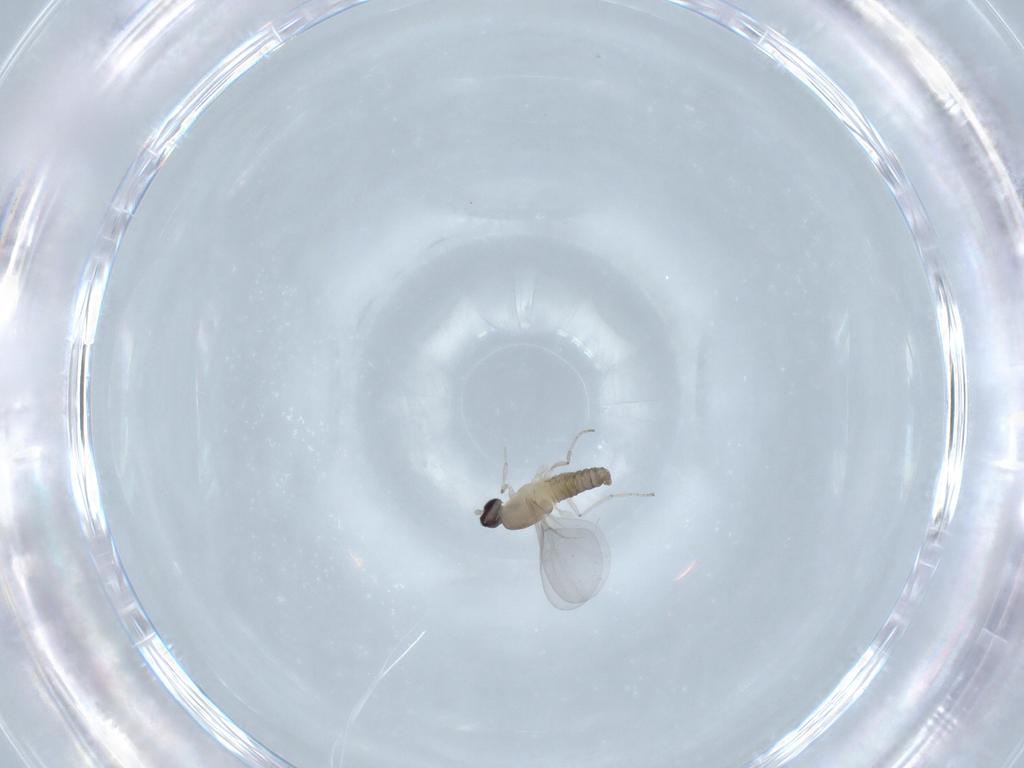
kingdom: Animalia
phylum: Arthropoda
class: Insecta
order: Diptera
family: Cecidomyiidae
